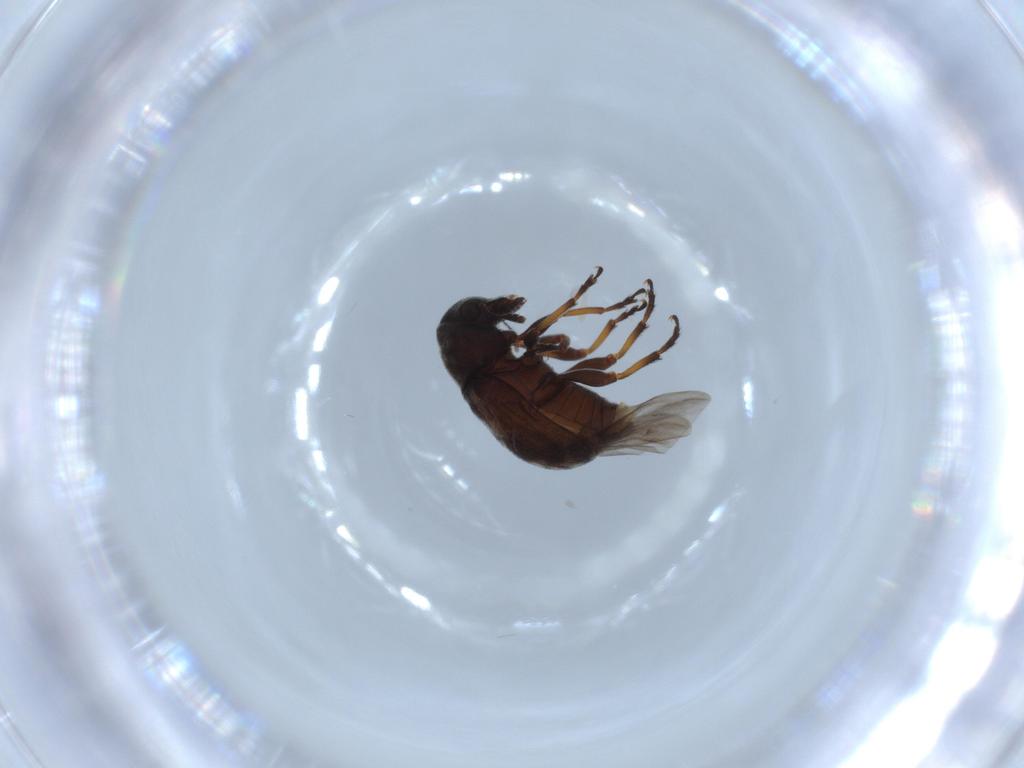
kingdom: Animalia
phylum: Arthropoda
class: Insecta
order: Coleoptera
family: Anthribidae
